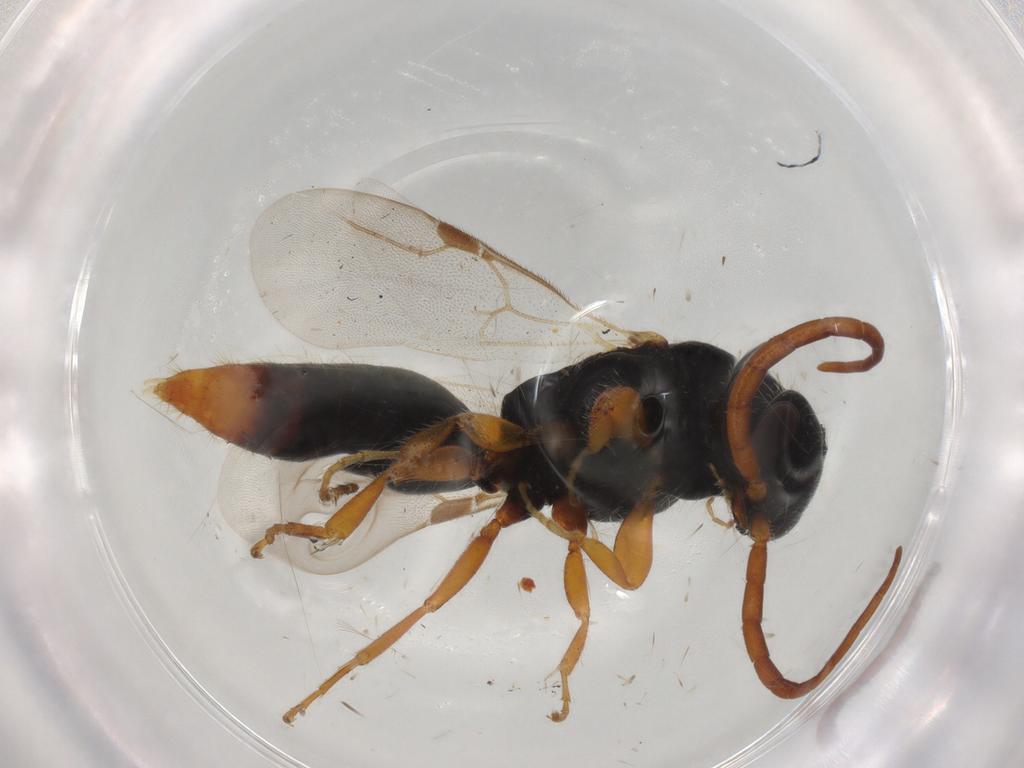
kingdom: Animalia
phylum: Arthropoda
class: Insecta
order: Hymenoptera
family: Bethylidae
